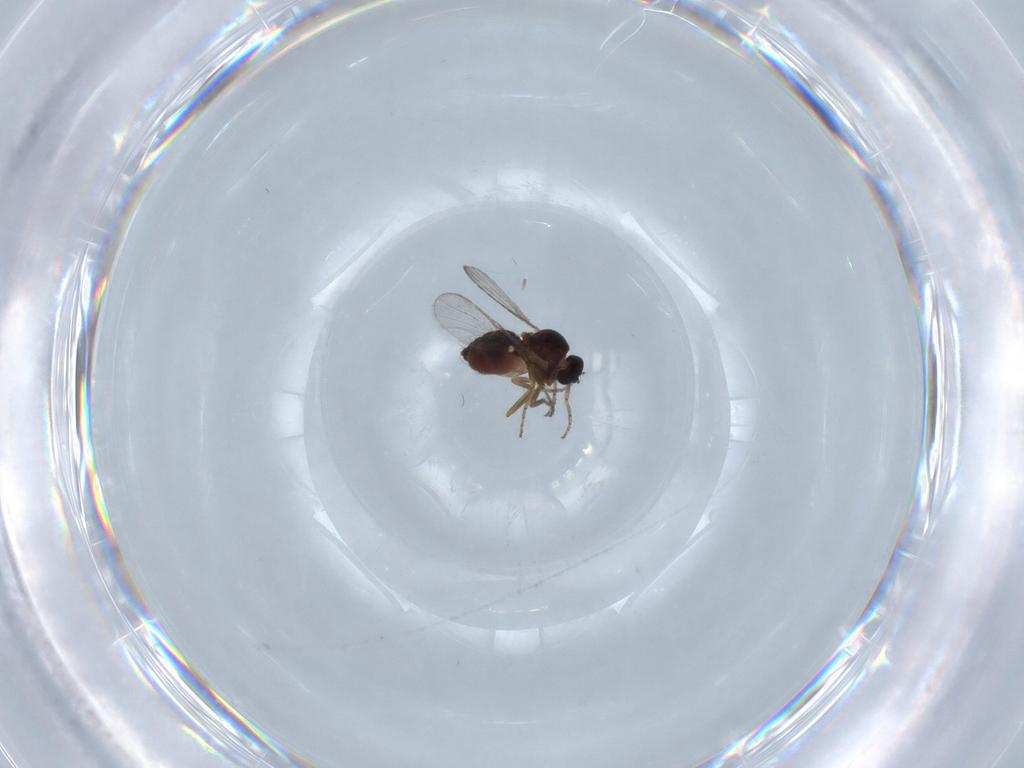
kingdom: Animalia
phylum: Arthropoda
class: Insecta
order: Diptera
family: Ceratopogonidae
